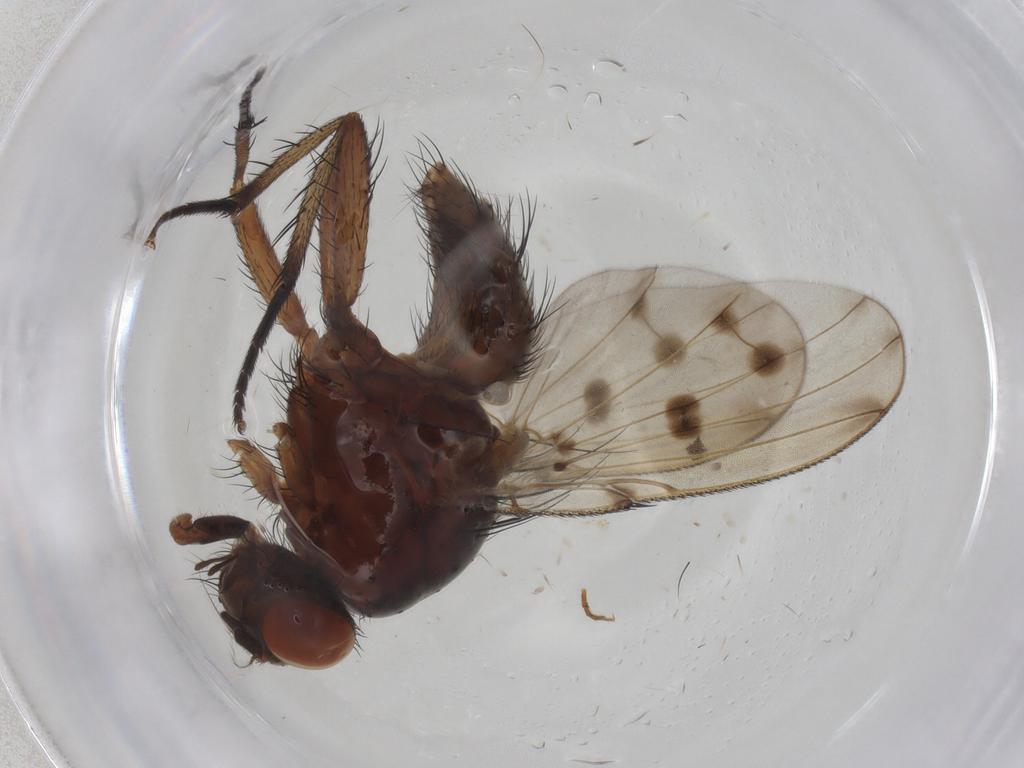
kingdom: Animalia
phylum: Arthropoda
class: Insecta
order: Diptera
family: Anthomyiidae
